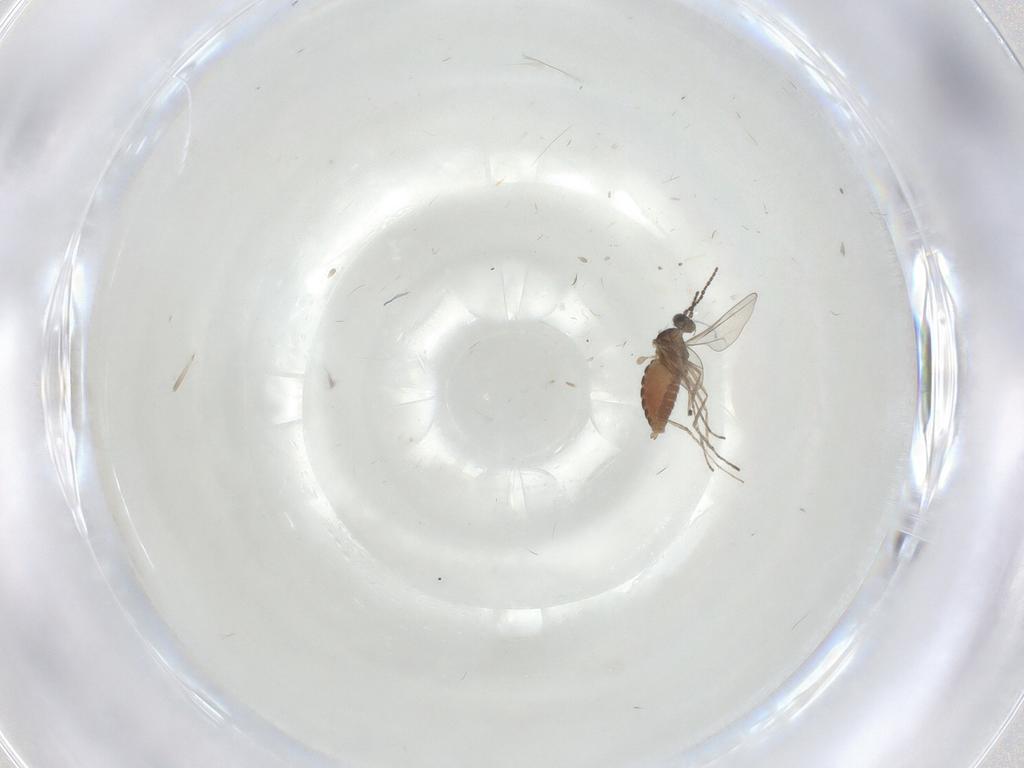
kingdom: Animalia
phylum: Arthropoda
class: Insecta
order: Diptera
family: Cecidomyiidae
